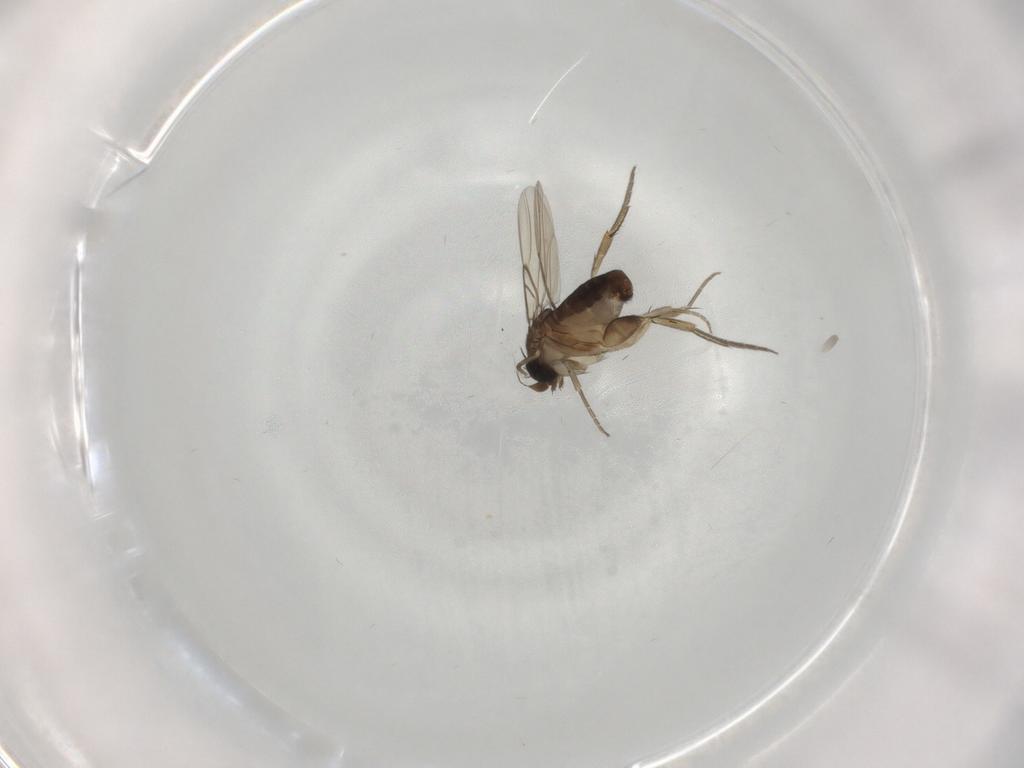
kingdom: Animalia
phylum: Arthropoda
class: Insecta
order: Diptera
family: Phoridae
